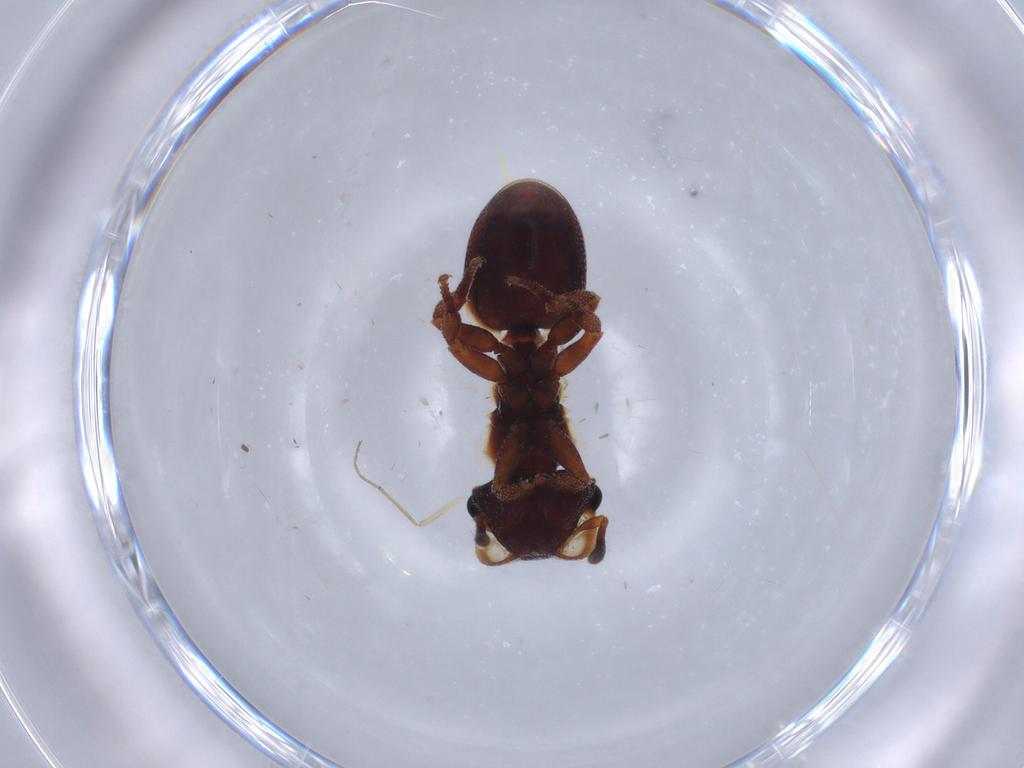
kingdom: Animalia
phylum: Arthropoda
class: Insecta
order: Hymenoptera
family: Formicidae
